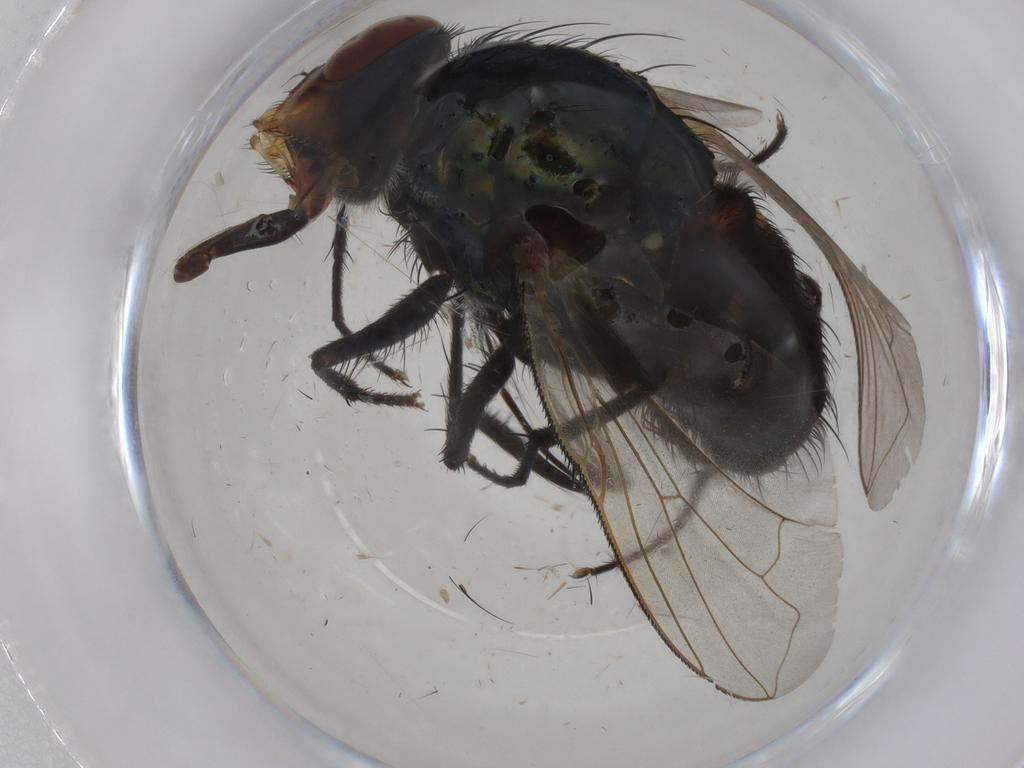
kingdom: Animalia
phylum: Arthropoda
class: Insecta
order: Diptera
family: Calliphoridae
